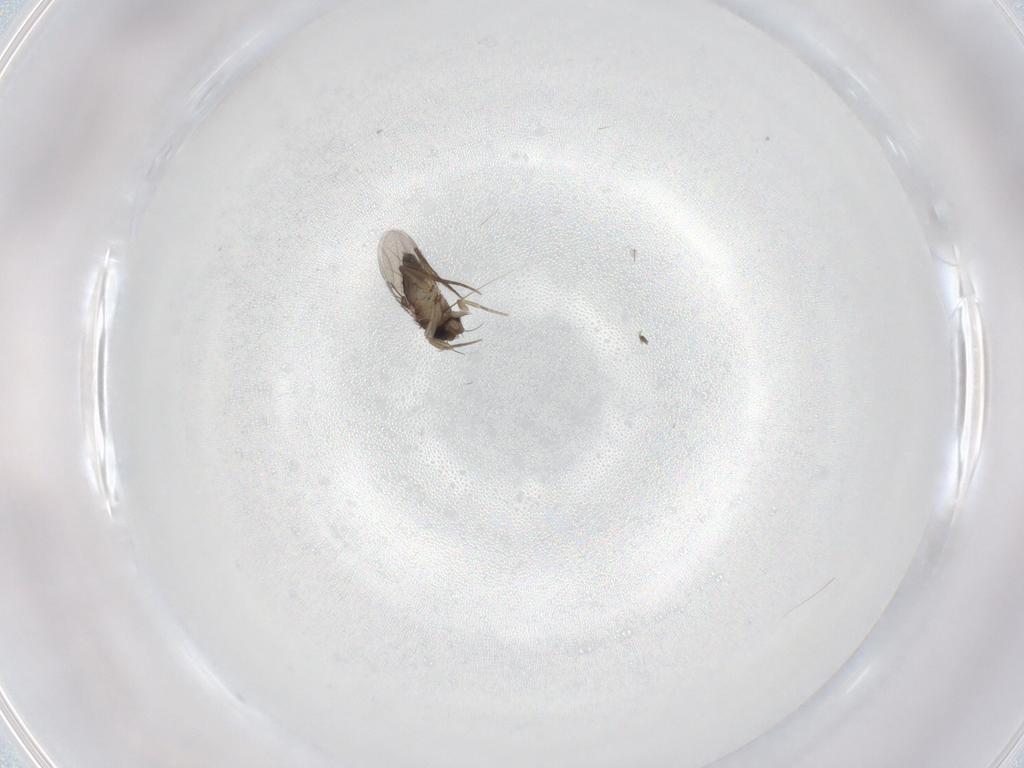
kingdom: Animalia
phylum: Arthropoda
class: Insecta
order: Diptera
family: Phoridae
